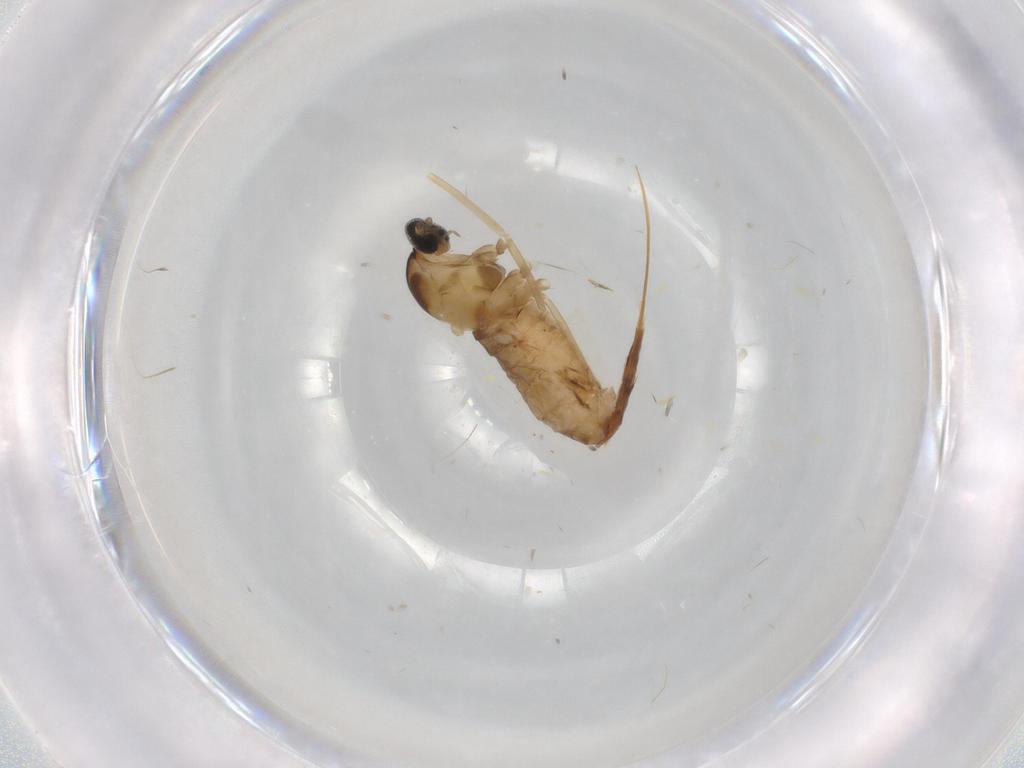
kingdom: Animalia
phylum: Arthropoda
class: Insecta
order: Diptera
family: Cecidomyiidae
